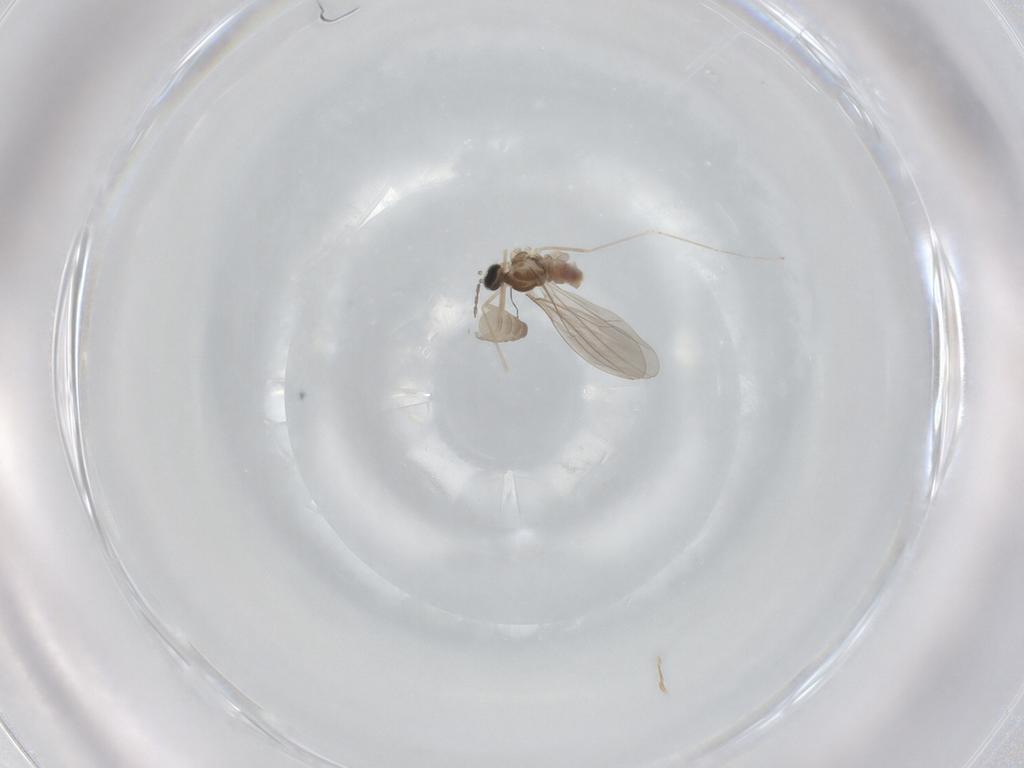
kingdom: Animalia
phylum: Arthropoda
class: Insecta
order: Diptera
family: Cecidomyiidae
